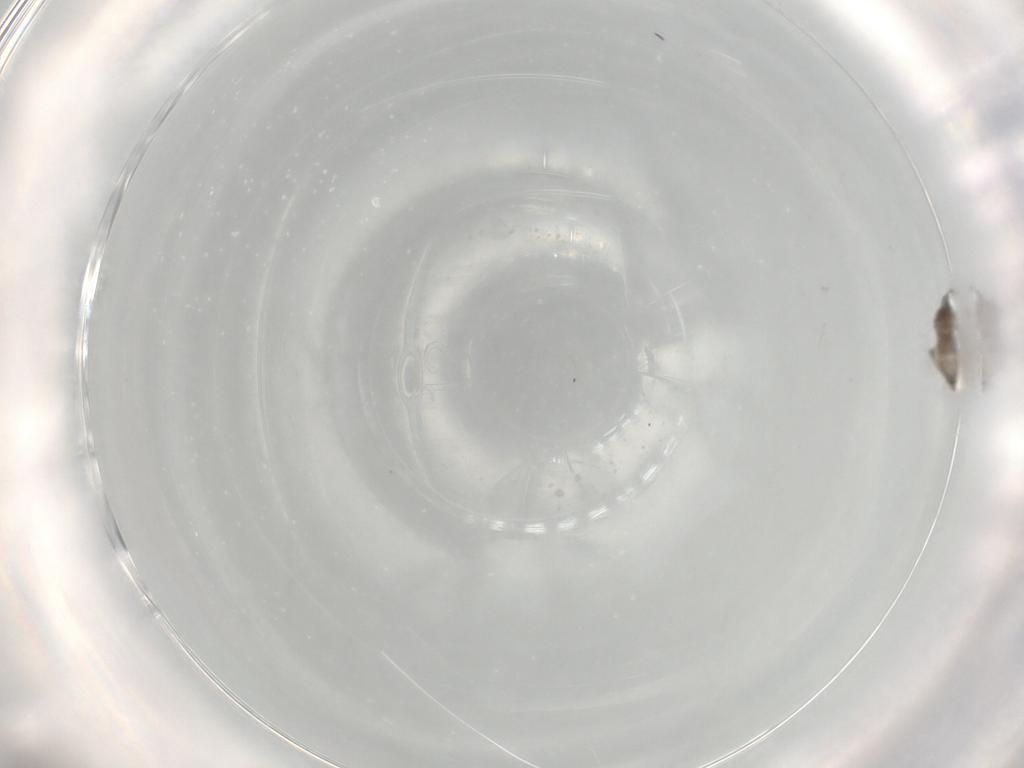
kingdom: Animalia
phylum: Arthropoda
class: Insecta
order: Diptera
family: Cecidomyiidae
